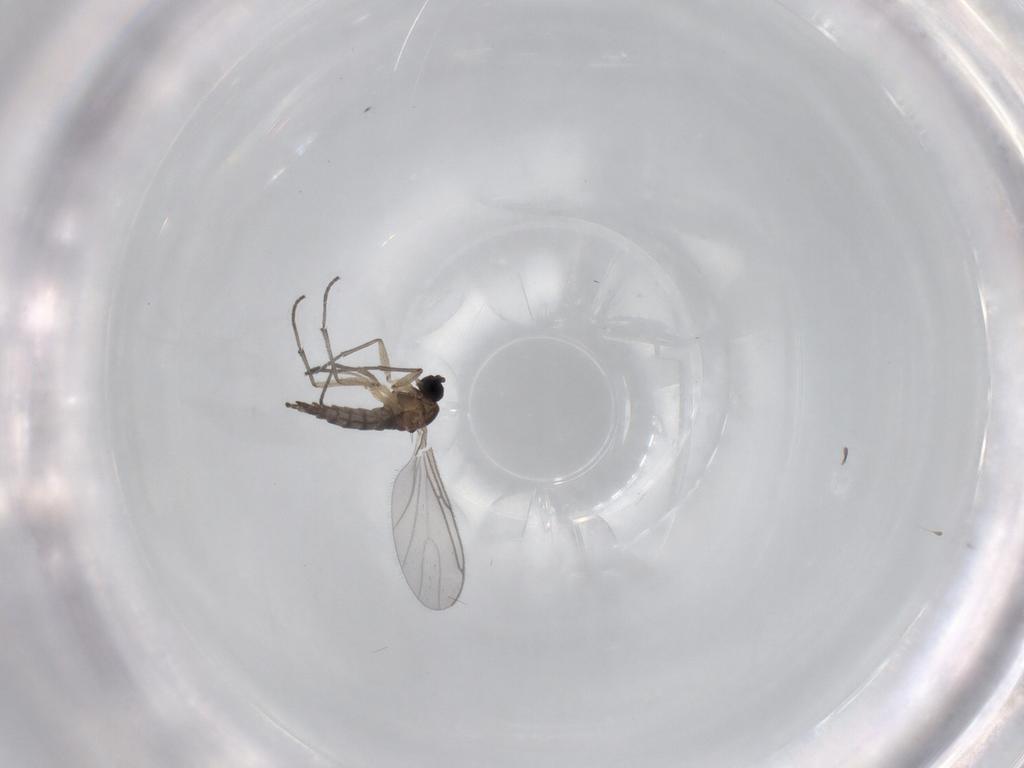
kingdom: Animalia
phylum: Arthropoda
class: Insecta
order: Diptera
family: Sciaridae
